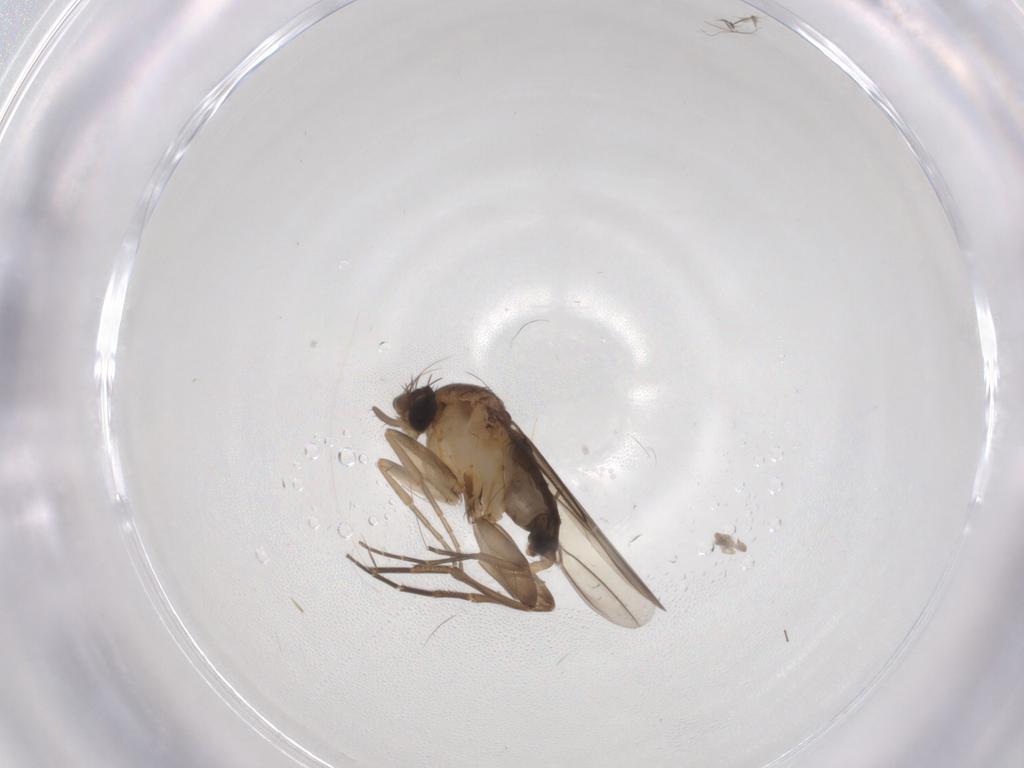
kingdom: Animalia
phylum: Arthropoda
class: Insecta
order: Diptera
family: Phoridae
